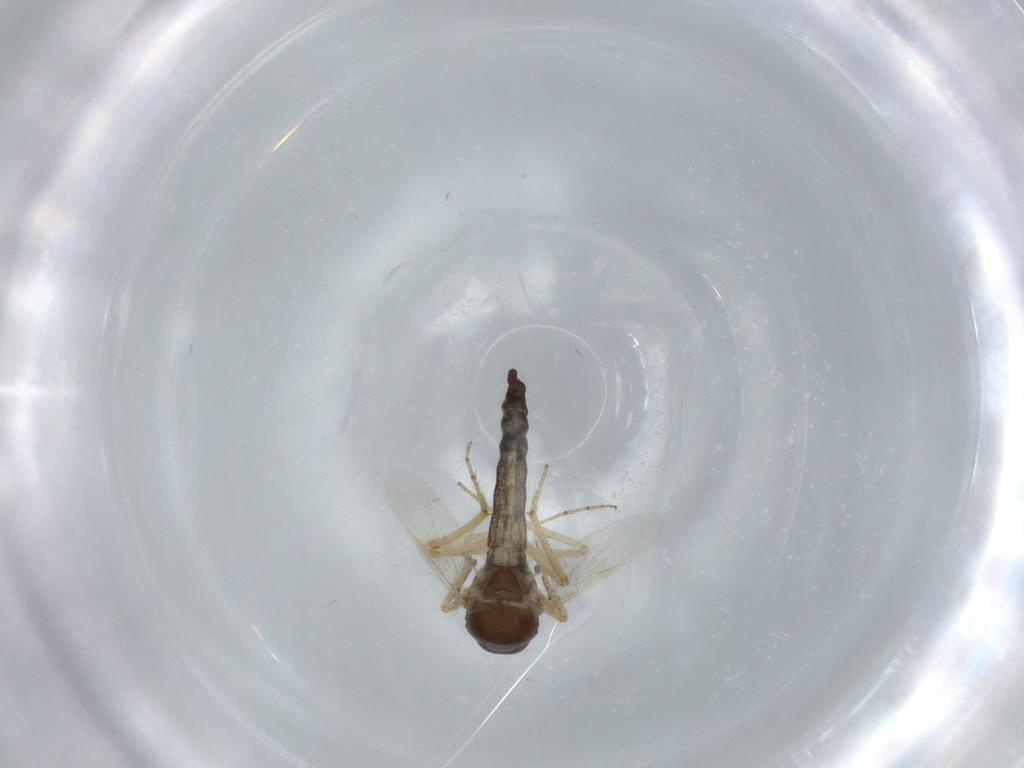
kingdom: Animalia
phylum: Arthropoda
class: Insecta
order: Diptera
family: Ceratopogonidae
